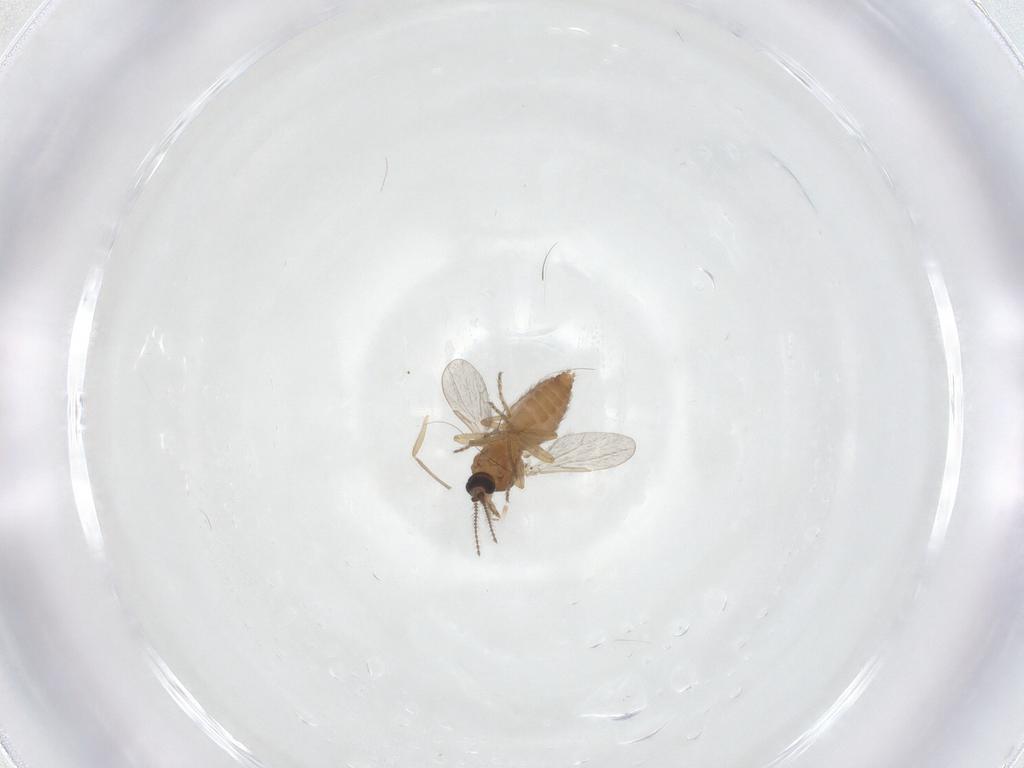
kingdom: Animalia
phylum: Arthropoda
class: Insecta
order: Diptera
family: Ceratopogonidae
